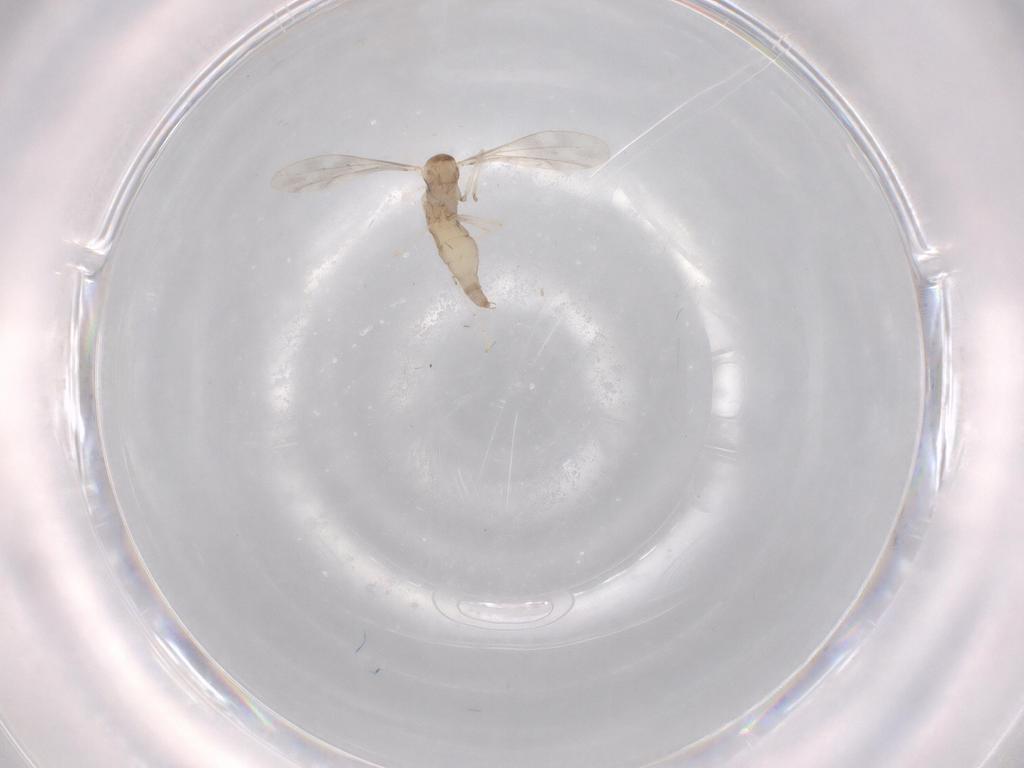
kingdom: Animalia
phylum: Arthropoda
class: Insecta
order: Diptera
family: Cecidomyiidae
